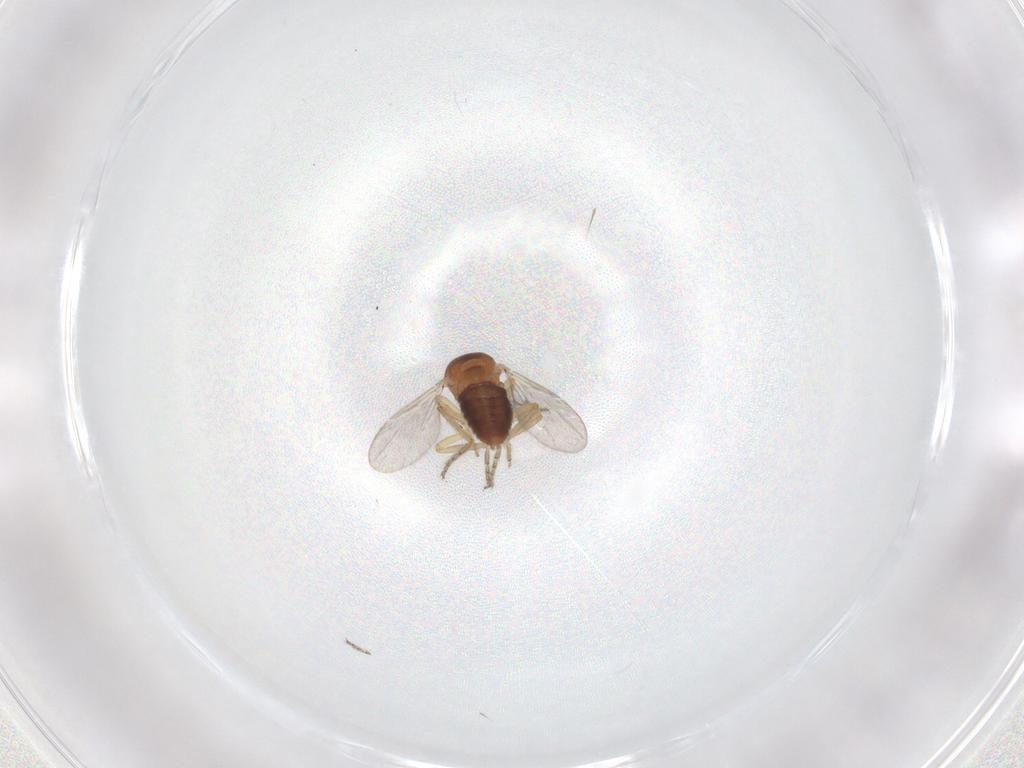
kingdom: Animalia
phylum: Arthropoda
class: Insecta
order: Diptera
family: Ceratopogonidae
